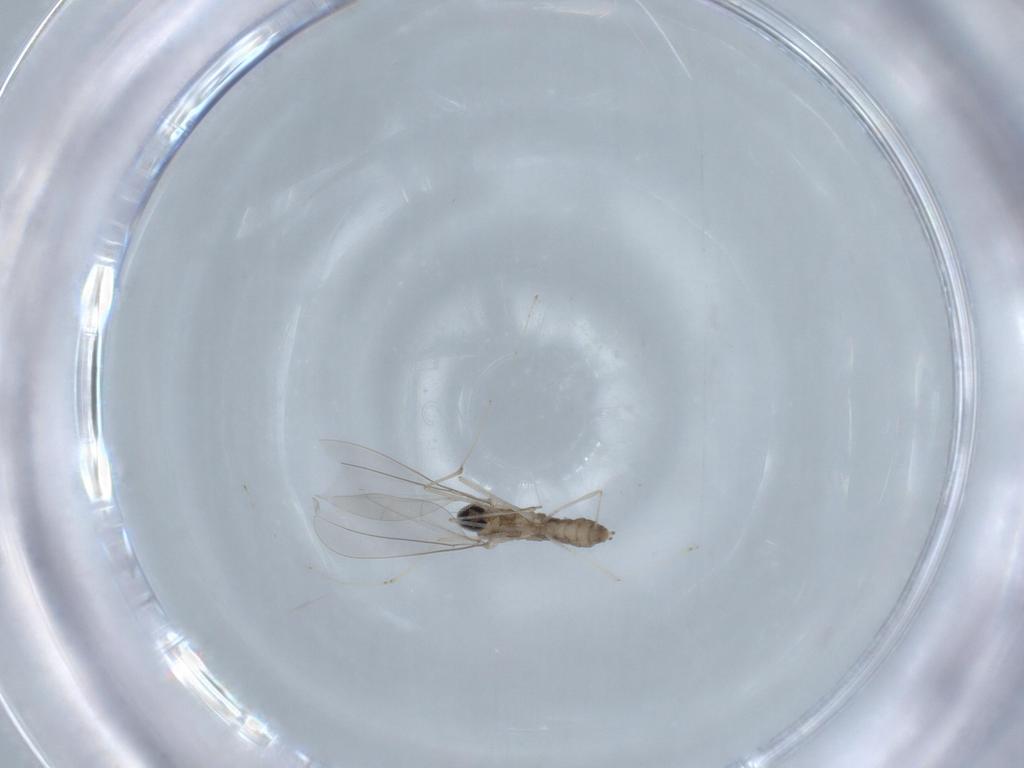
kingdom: Animalia
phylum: Arthropoda
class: Insecta
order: Diptera
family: Cecidomyiidae
